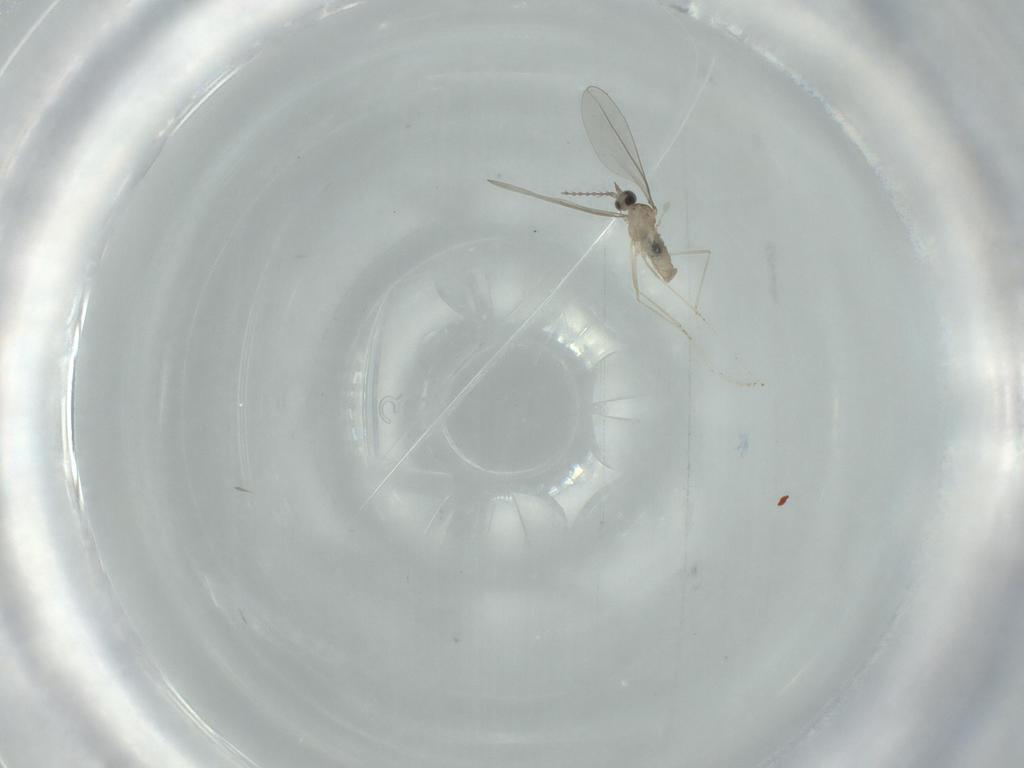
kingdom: Animalia
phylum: Arthropoda
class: Insecta
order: Diptera
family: Cecidomyiidae
